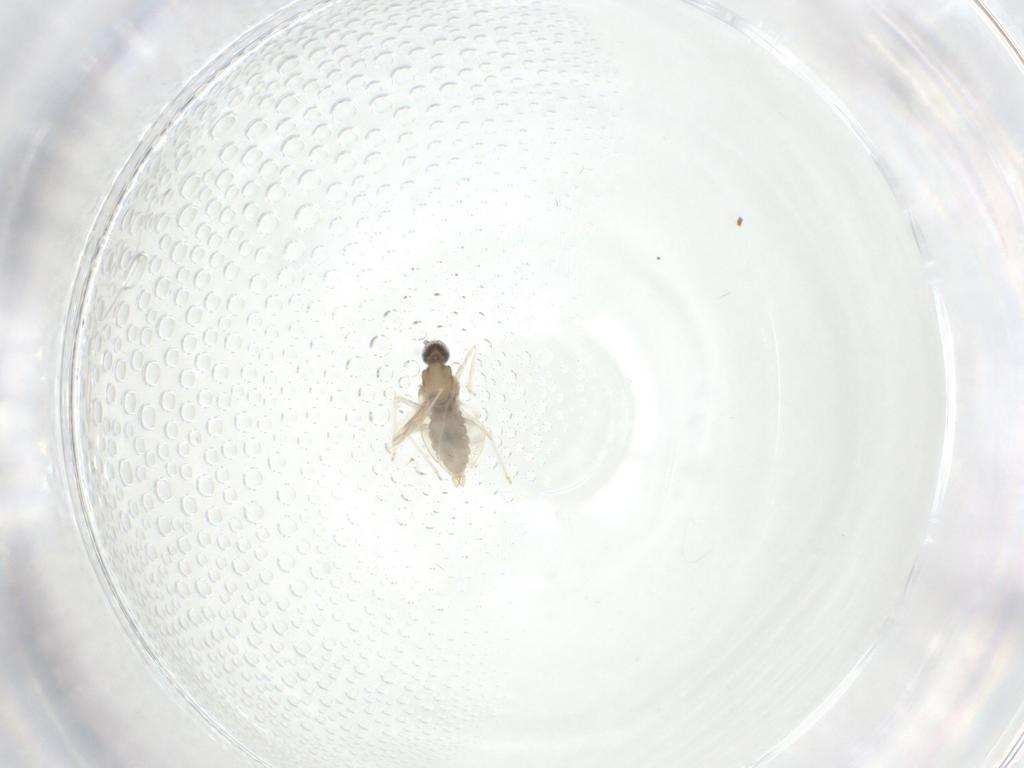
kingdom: Animalia
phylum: Arthropoda
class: Insecta
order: Diptera
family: Cecidomyiidae
